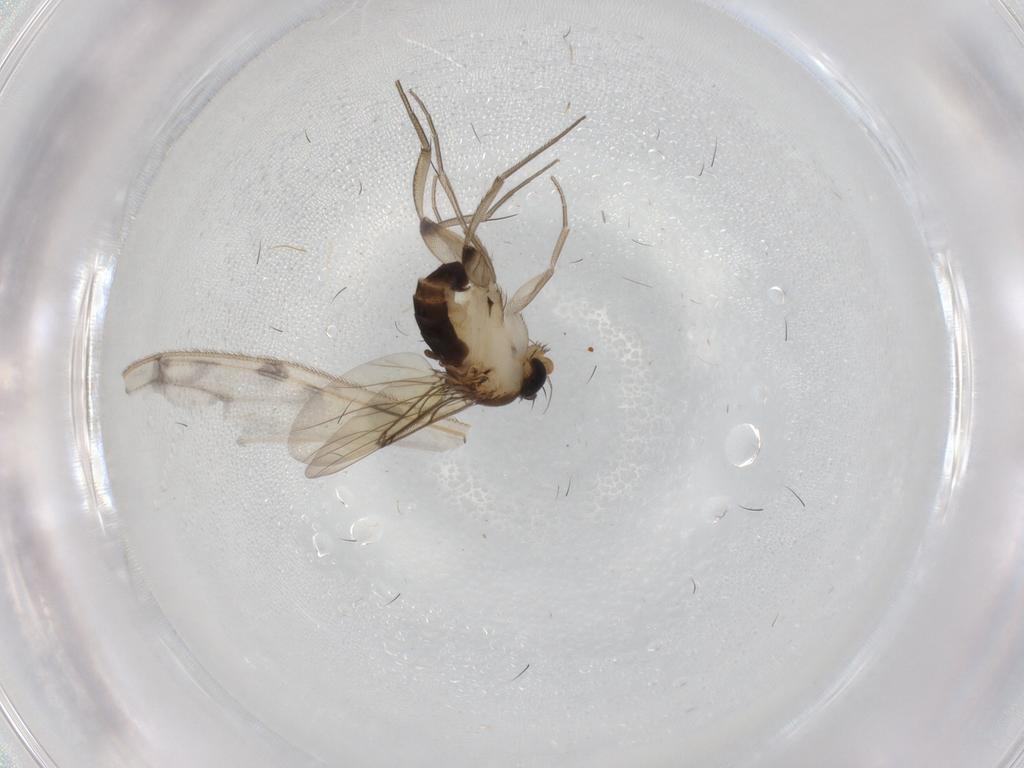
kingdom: Animalia
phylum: Arthropoda
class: Insecta
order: Diptera
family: Limoniidae
